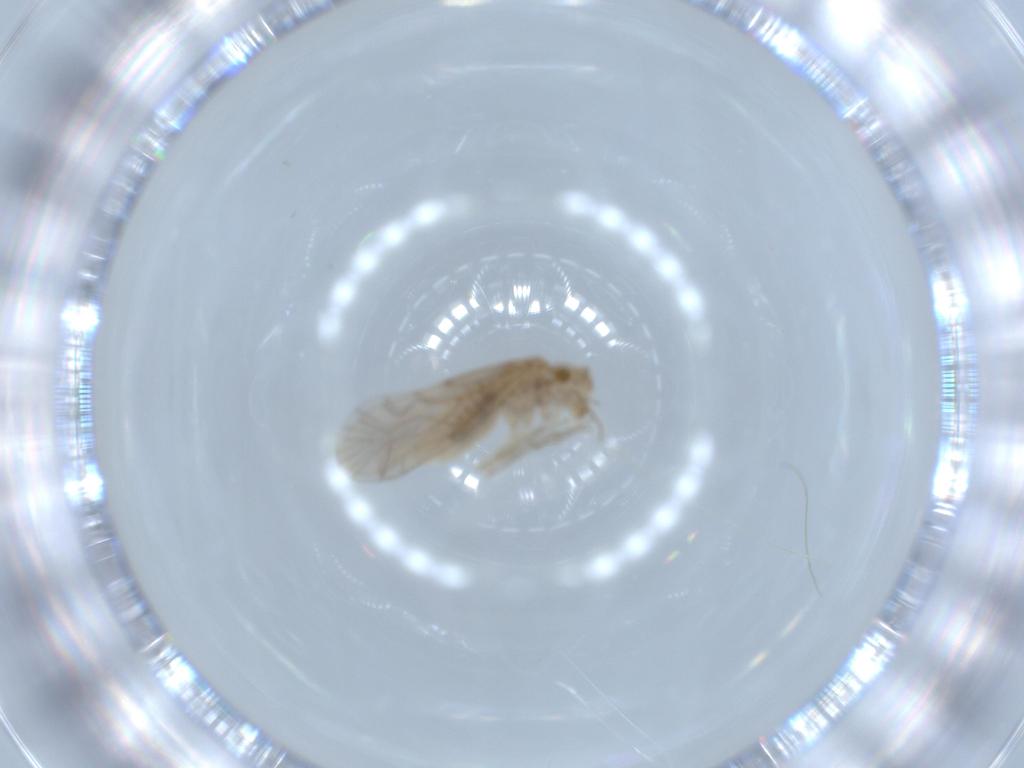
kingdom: Animalia
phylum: Arthropoda
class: Insecta
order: Psocodea
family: Lachesillidae
